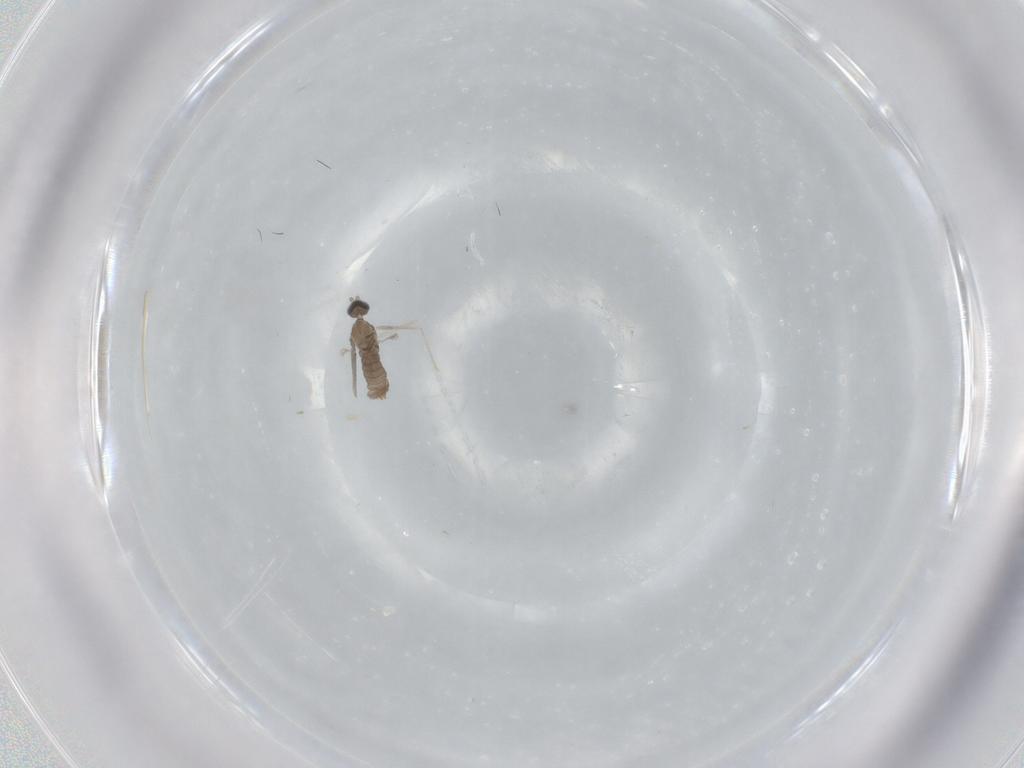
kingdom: Animalia
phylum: Arthropoda
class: Insecta
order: Diptera
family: Cecidomyiidae
